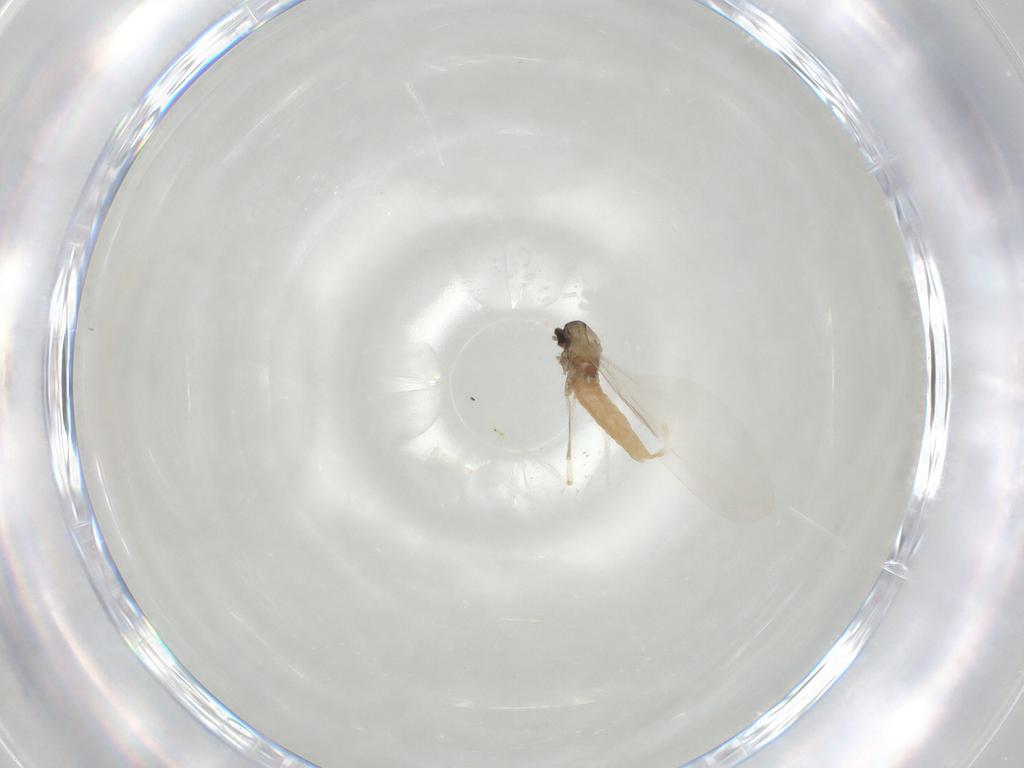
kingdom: Animalia
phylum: Arthropoda
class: Insecta
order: Diptera
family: Cecidomyiidae
